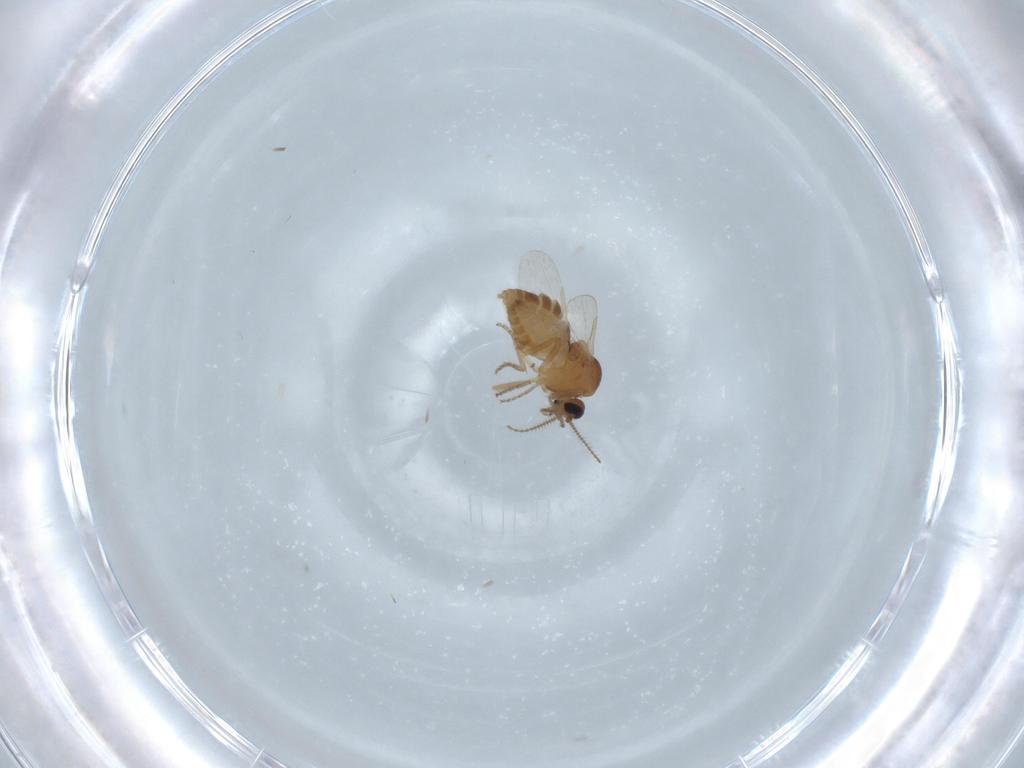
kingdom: Animalia
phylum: Arthropoda
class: Insecta
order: Diptera
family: Ceratopogonidae
